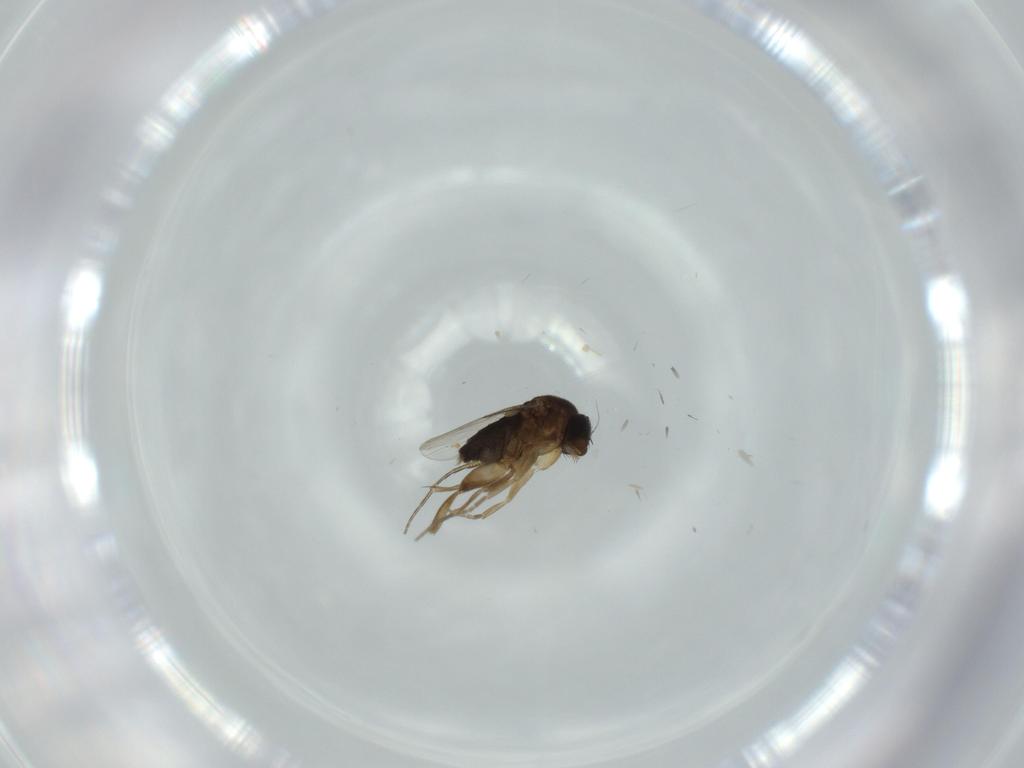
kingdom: Animalia
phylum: Arthropoda
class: Insecta
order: Diptera
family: Phoridae
